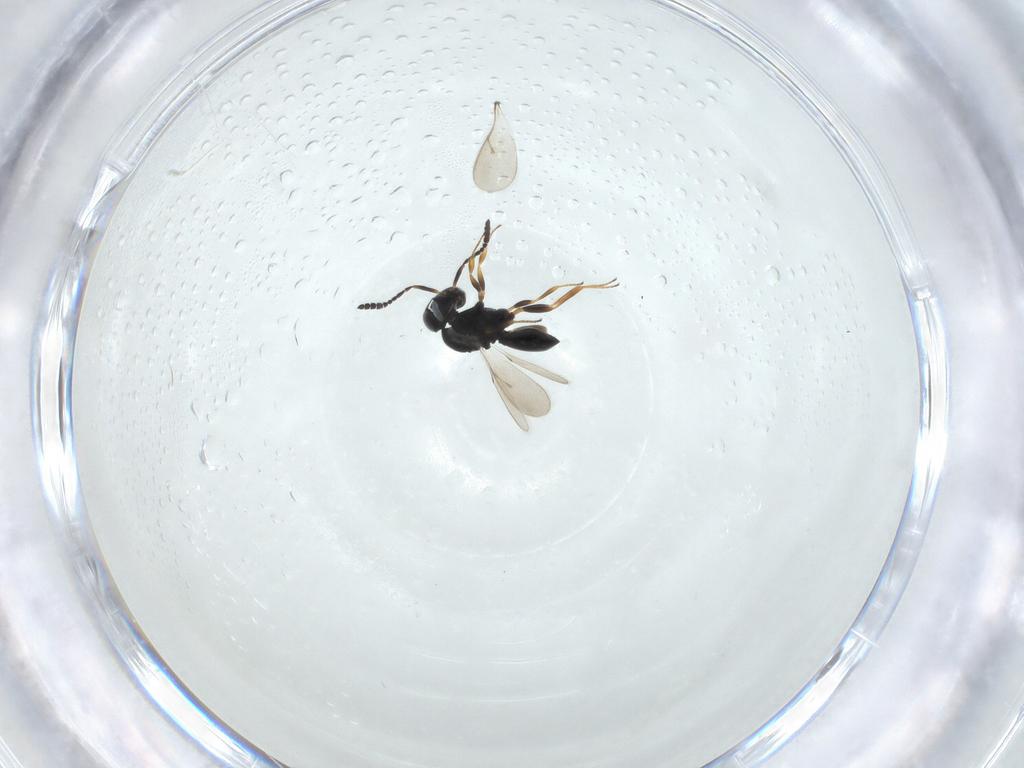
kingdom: Animalia
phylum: Arthropoda
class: Insecta
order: Hymenoptera
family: Scelionidae
